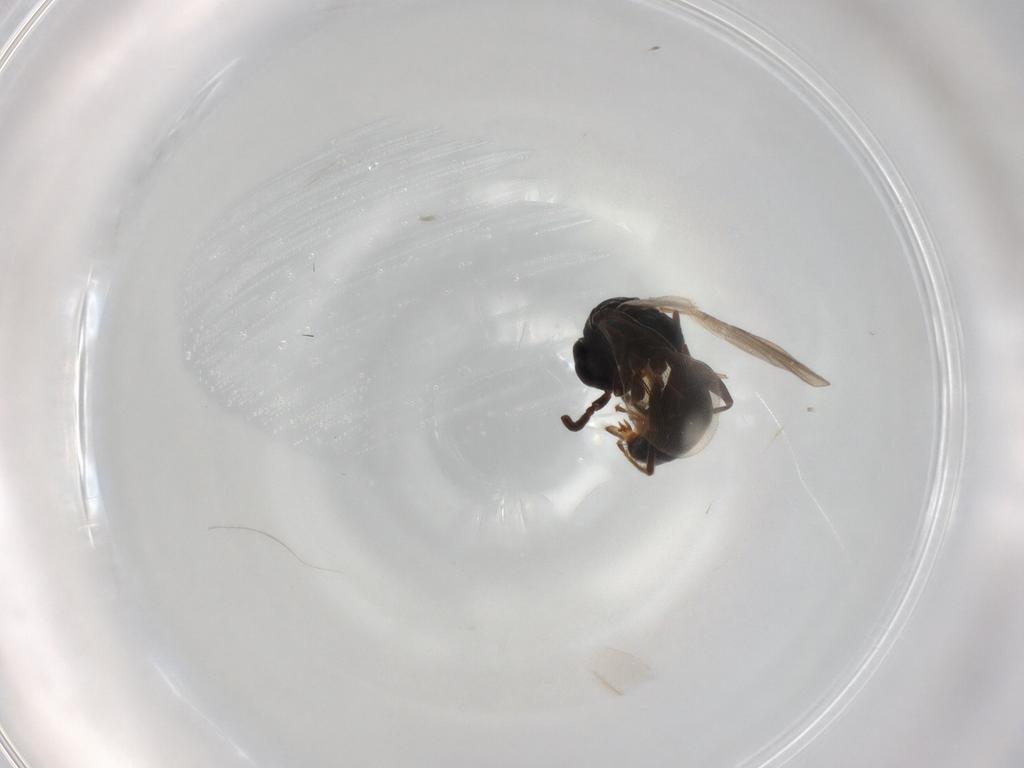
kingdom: Animalia
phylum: Arthropoda
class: Insecta
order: Hymenoptera
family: Bethylidae
